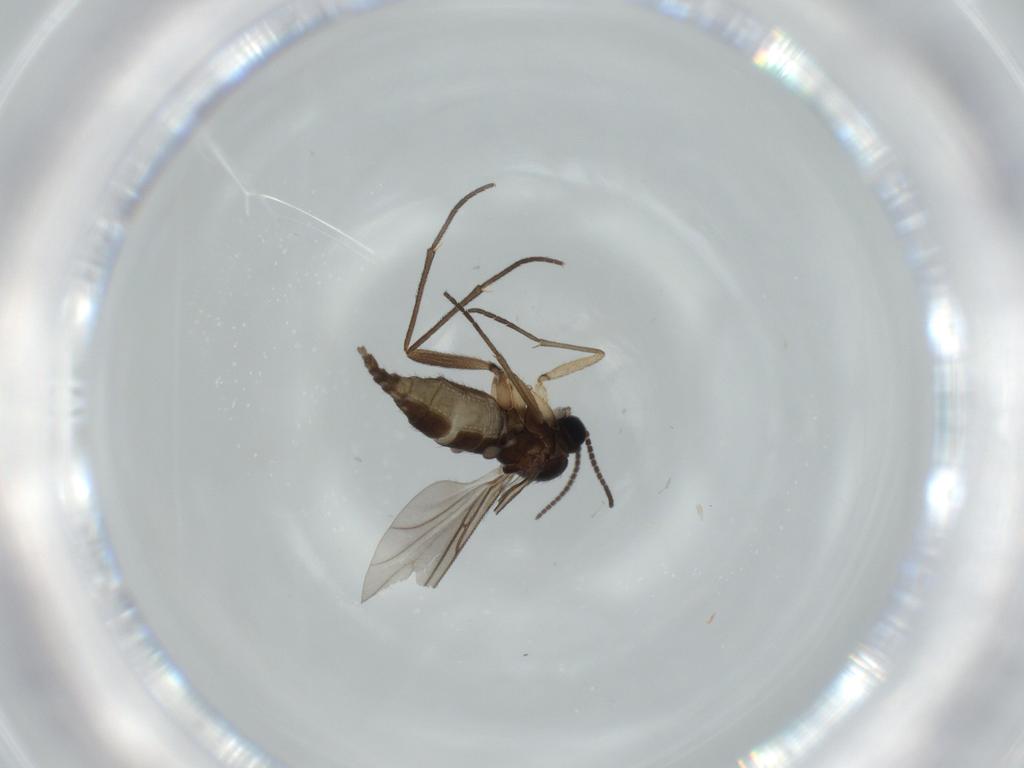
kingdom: Animalia
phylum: Arthropoda
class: Insecta
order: Diptera
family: Sciaridae
